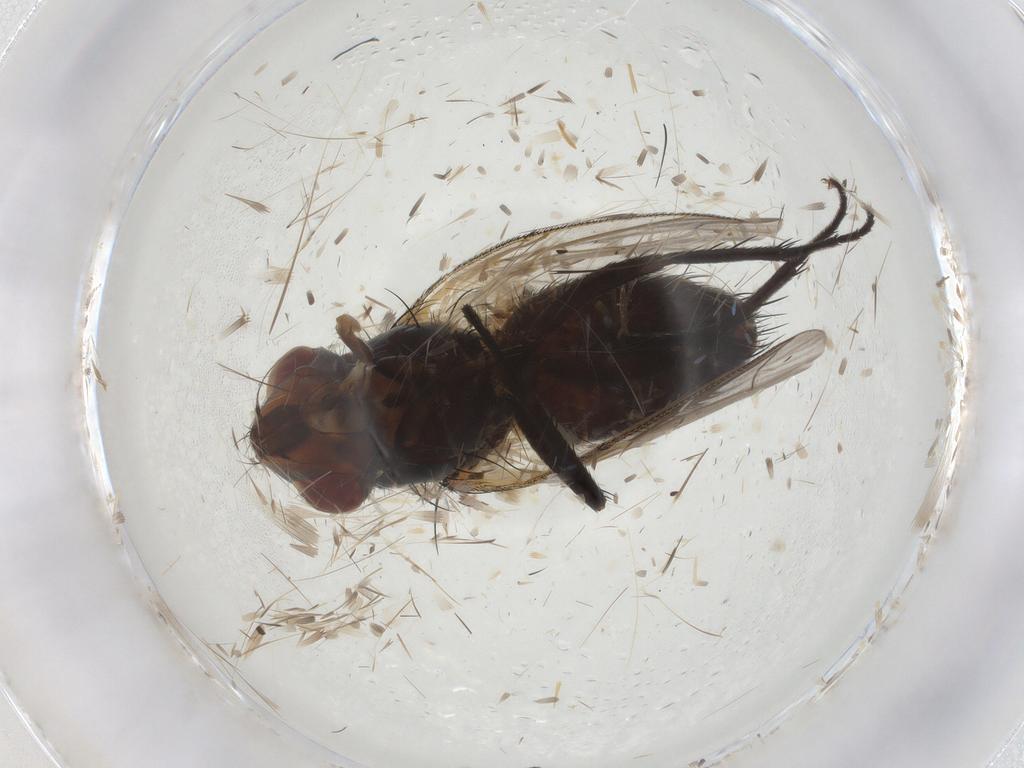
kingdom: Animalia
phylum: Arthropoda
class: Insecta
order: Diptera
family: Sarcophagidae
